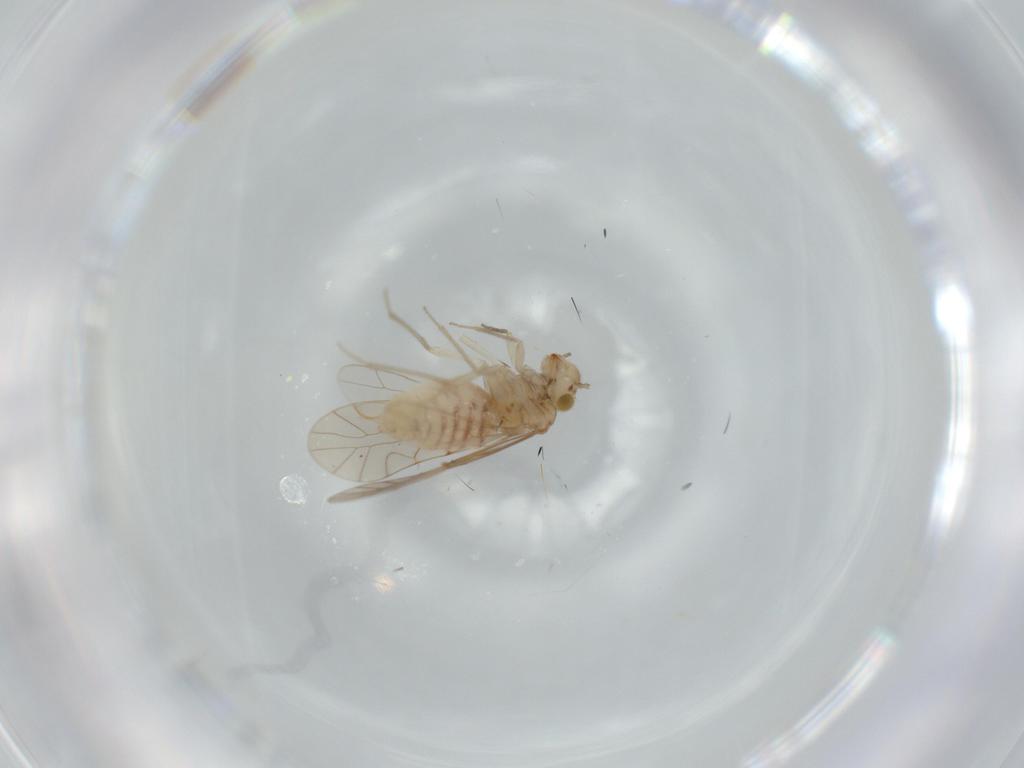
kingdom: Animalia
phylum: Arthropoda
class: Insecta
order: Psocodea
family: Lachesillidae
